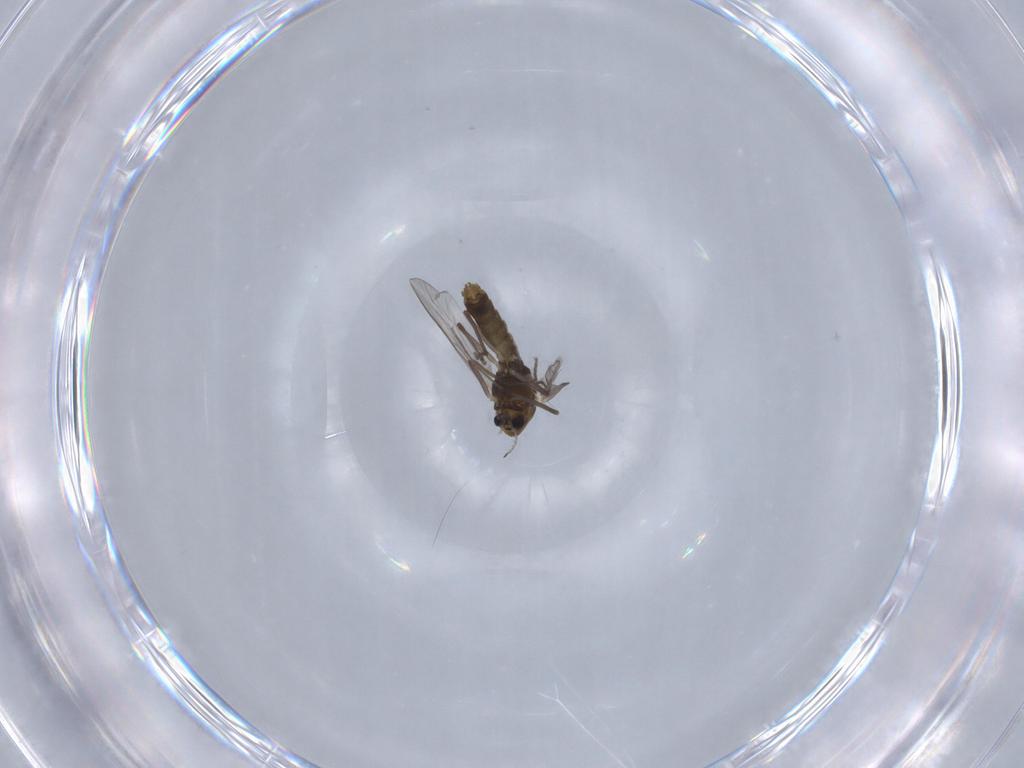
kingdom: Animalia
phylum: Arthropoda
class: Insecta
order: Diptera
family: Chironomidae
